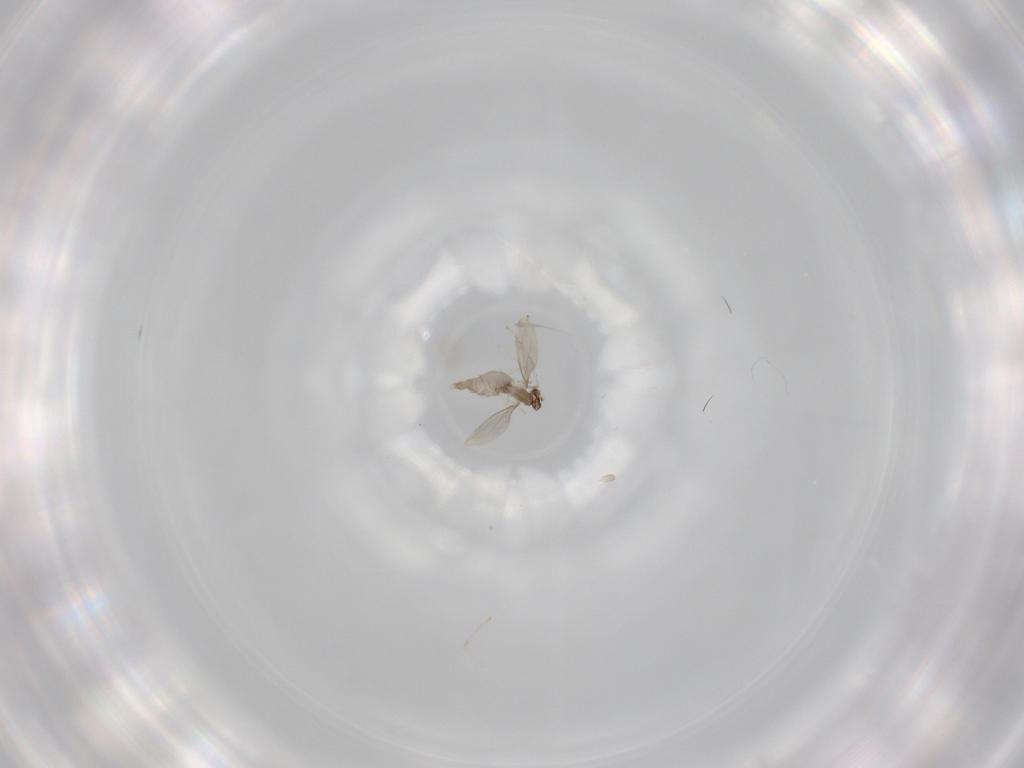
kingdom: Animalia
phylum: Arthropoda
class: Insecta
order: Diptera
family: Cecidomyiidae
